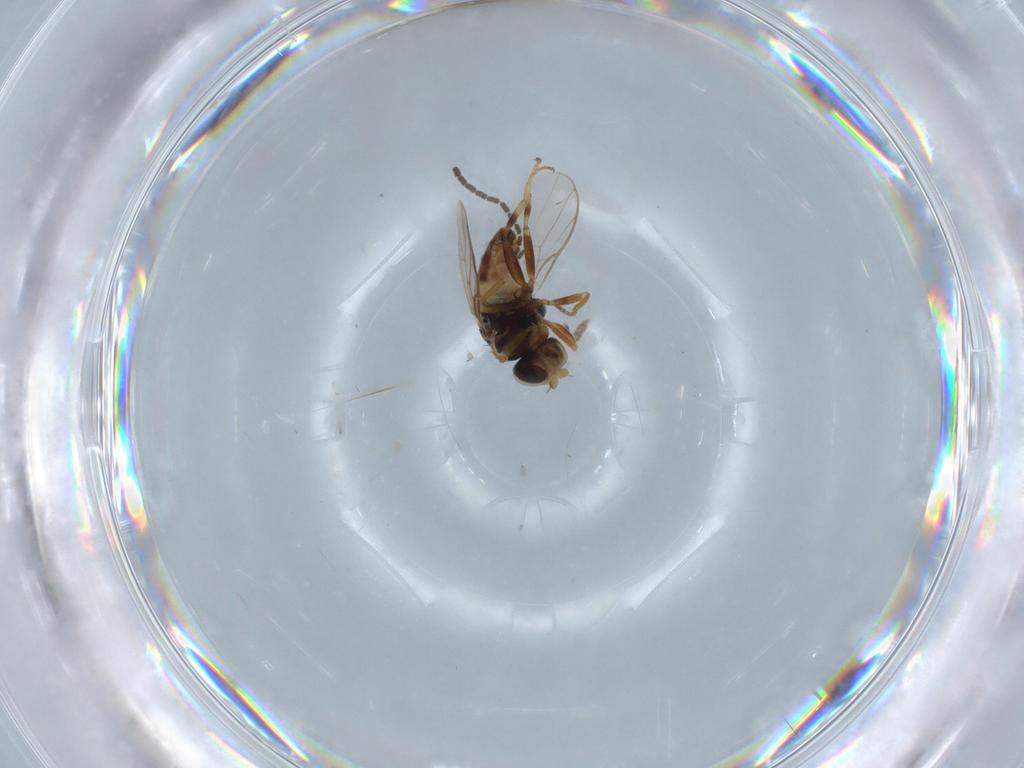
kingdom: Animalia
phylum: Arthropoda
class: Insecta
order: Diptera
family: Chloropidae
